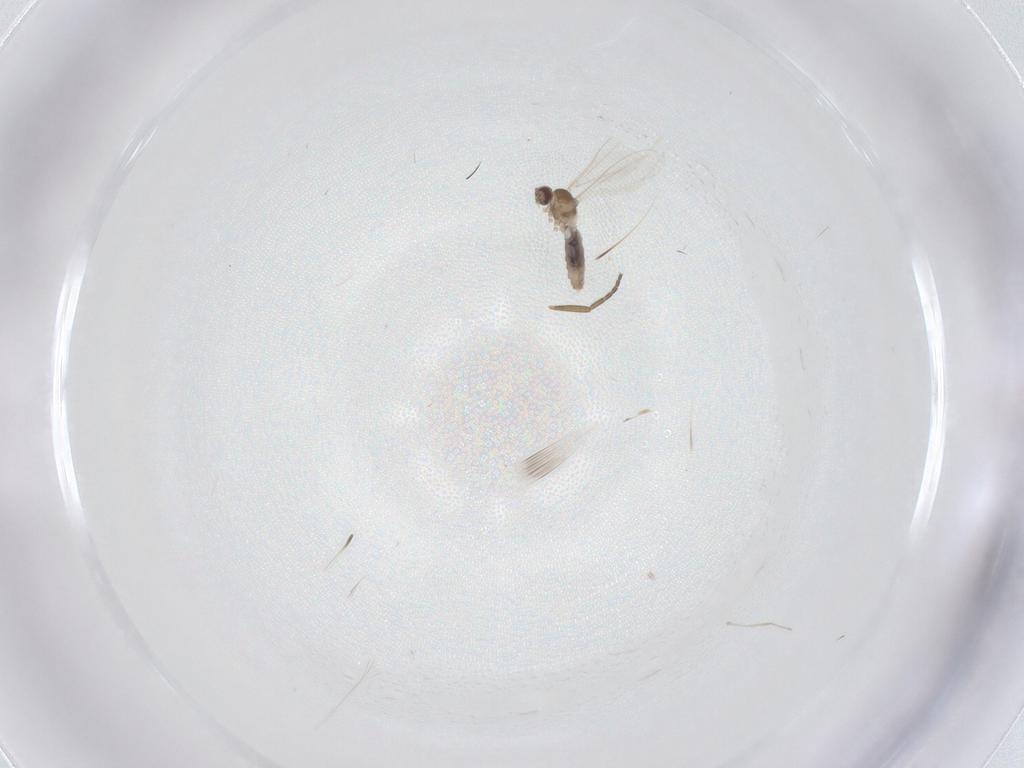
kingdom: Animalia
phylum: Arthropoda
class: Insecta
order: Diptera
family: Cecidomyiidae
